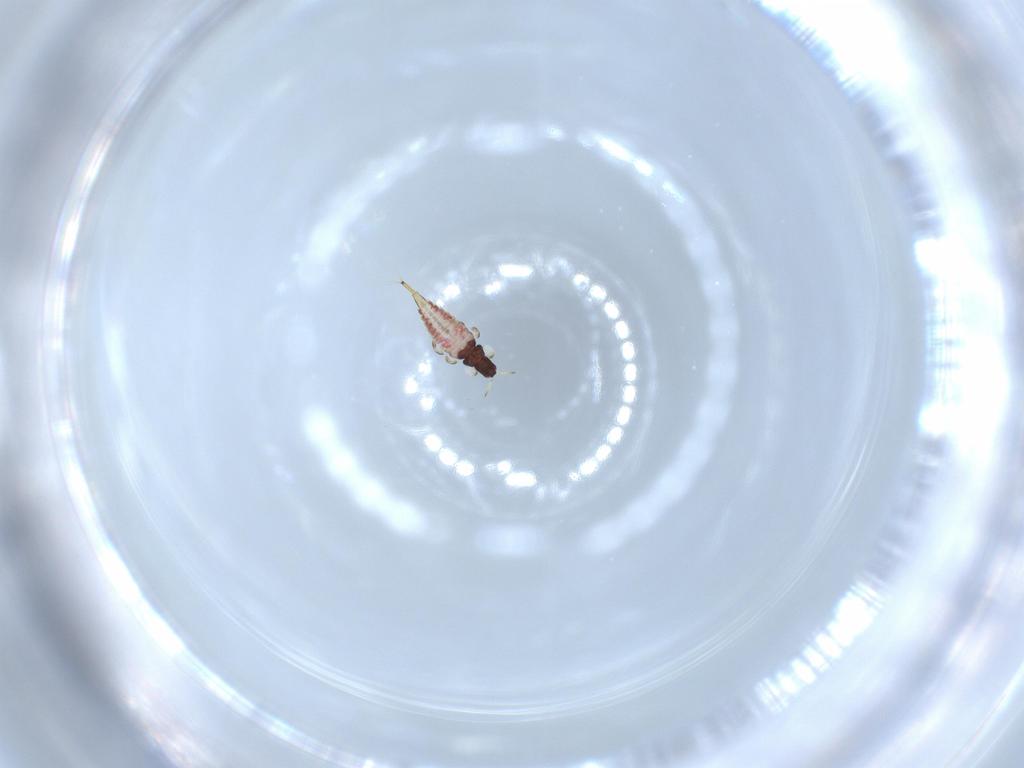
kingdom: Animalia
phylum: Arthropoda
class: Insecta
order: Thysanoptera
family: Phlaeothripidae
